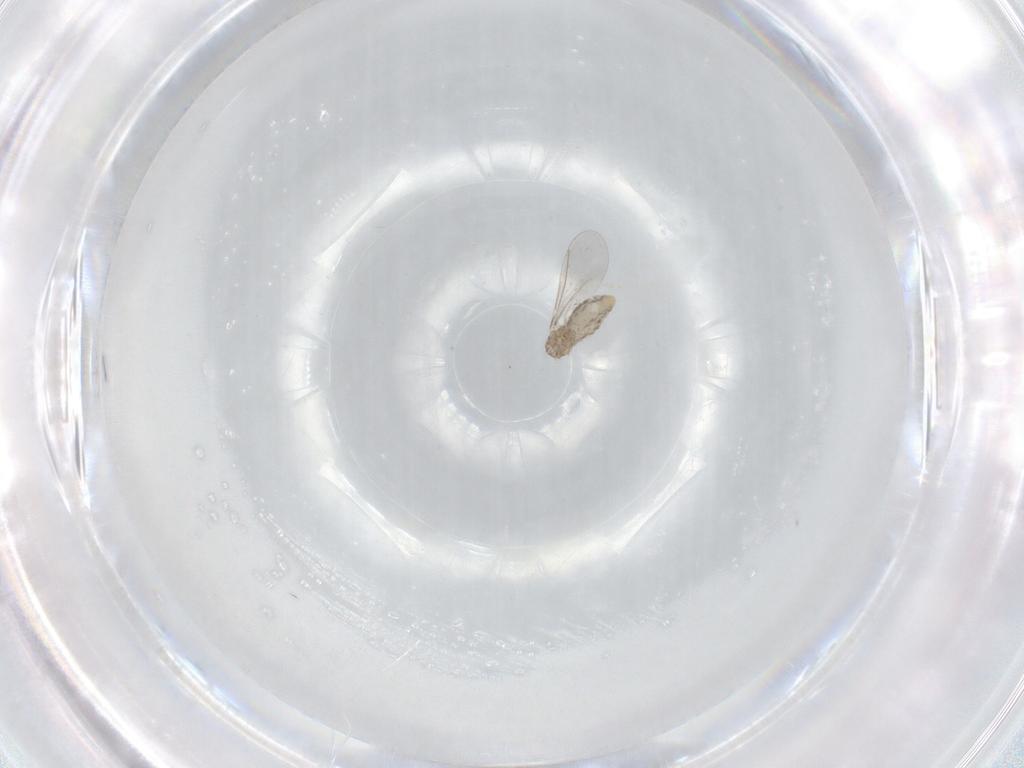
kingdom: Animalia
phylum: Arthropoda
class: Insecta
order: Diptera
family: Cecidomyiidae
